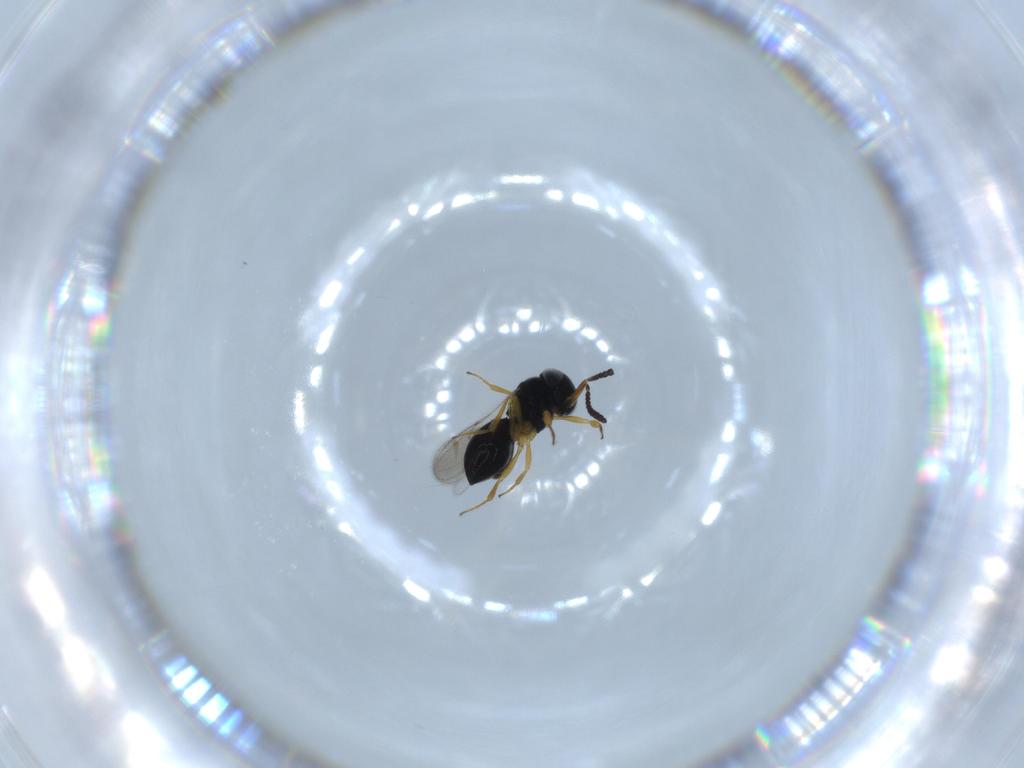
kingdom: Animalia
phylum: Arthropoda
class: Insecta
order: Hymenoptera
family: Scelionidae
